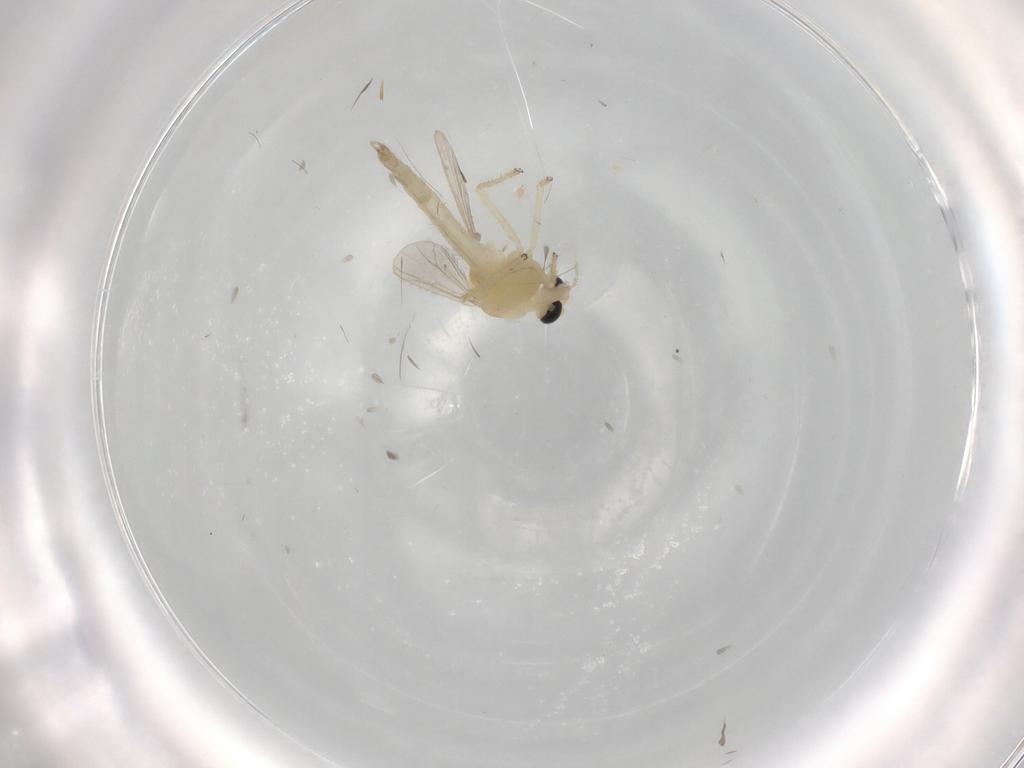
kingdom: Animalia
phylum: Arthropoda
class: Insecta
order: Diptera
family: Chironomidae
